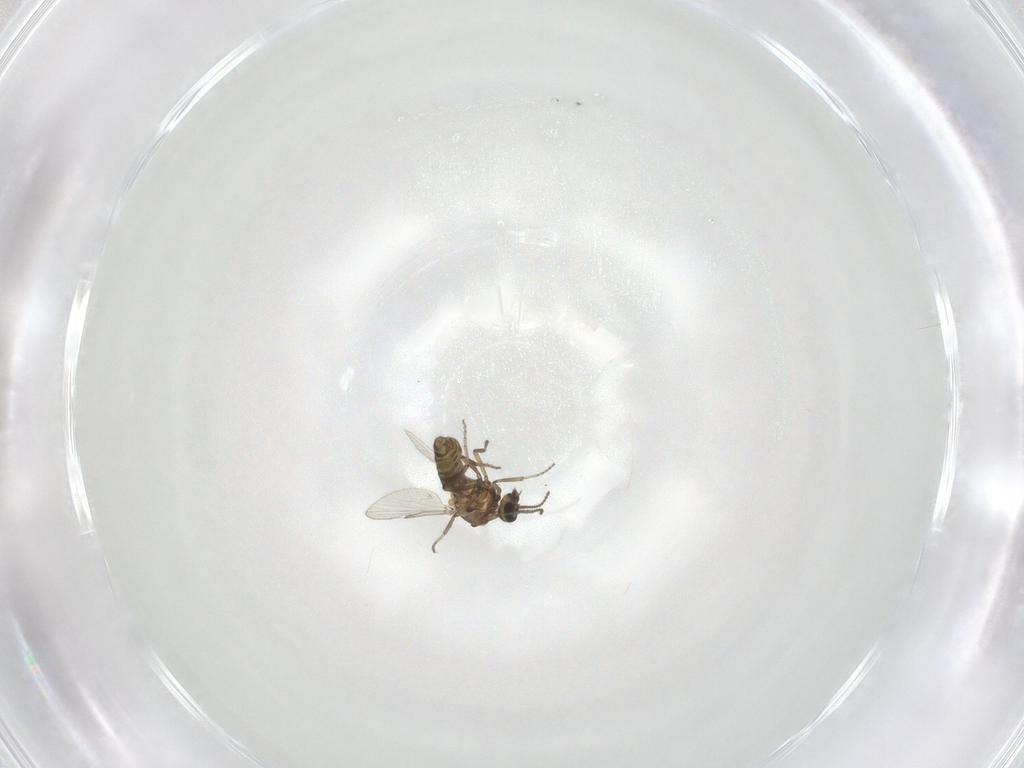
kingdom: Animalia
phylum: Arthropoda
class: Insecta
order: Diptera
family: Ceratopogonidae
